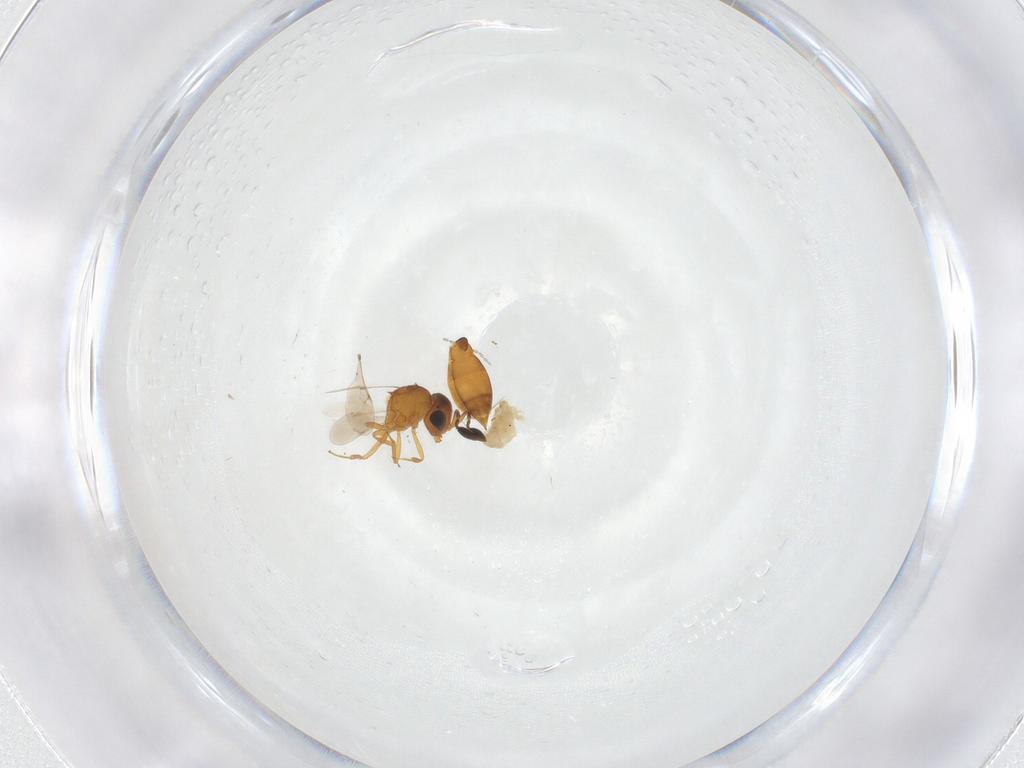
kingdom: Animalia
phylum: Arthropoda
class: Insecta
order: Hymenoptera
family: Scelionidae
